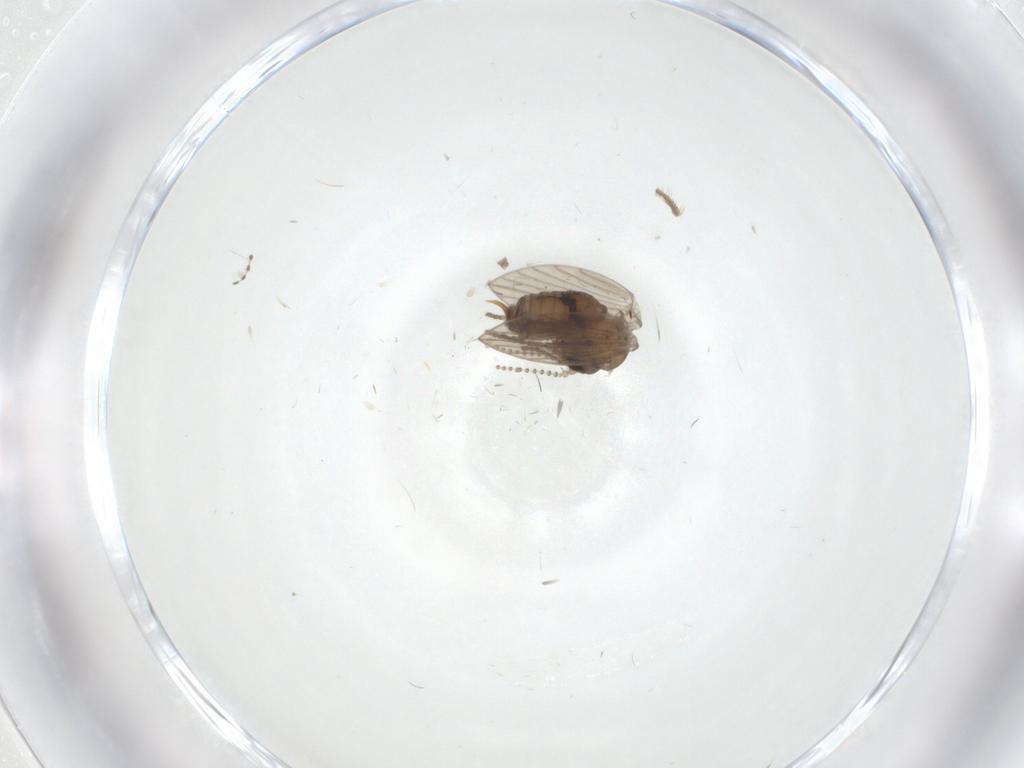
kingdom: Animalia
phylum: Arthropoda
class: Insecta
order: Diptera
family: Psychodidae
